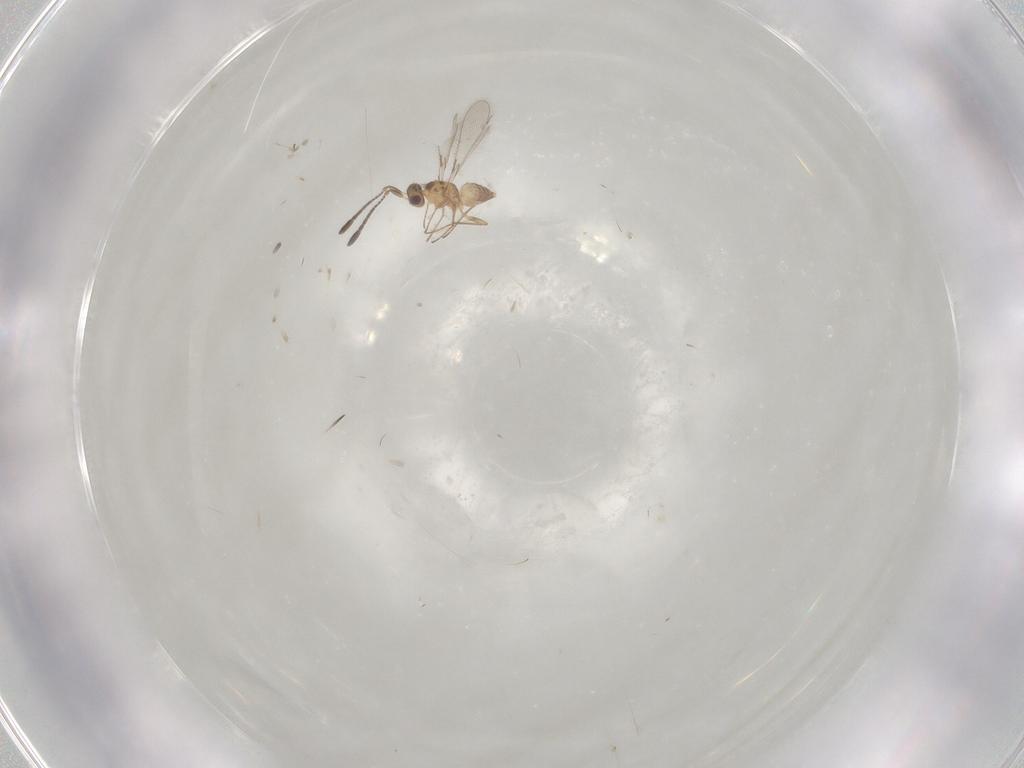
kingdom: Animalia
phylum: Arthropoda
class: Insecta
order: Hymenoptera
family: Mymaridae
